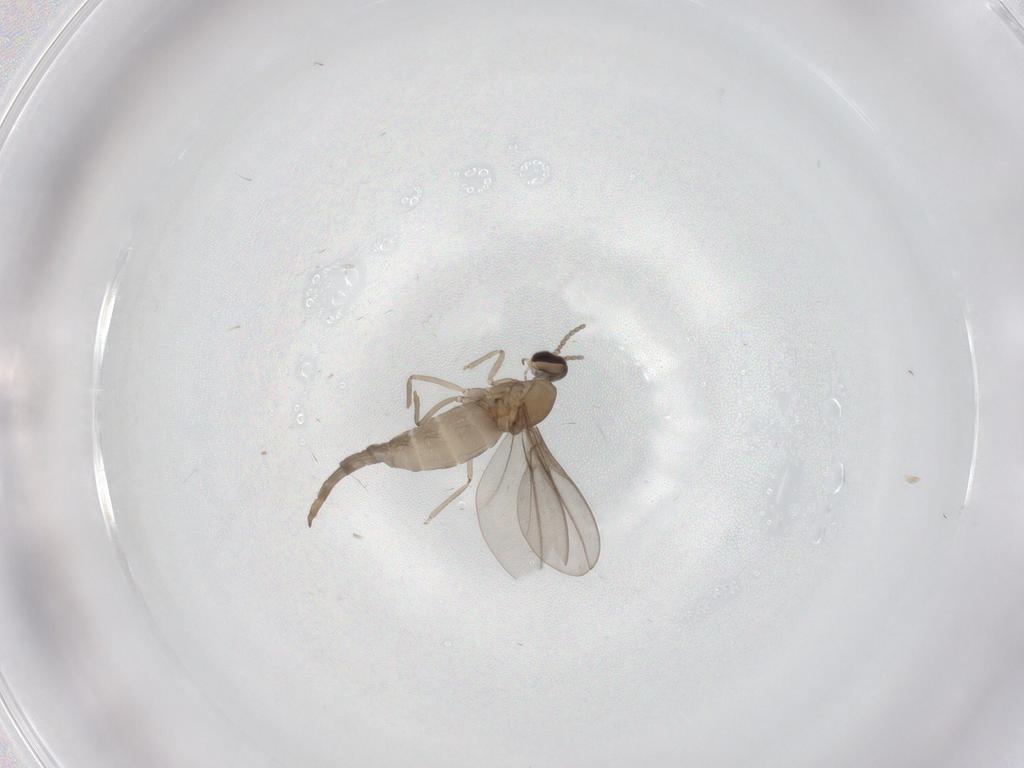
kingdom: Animalia
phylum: Arthropoda
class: Insecta
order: Diptera
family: Phoridae
